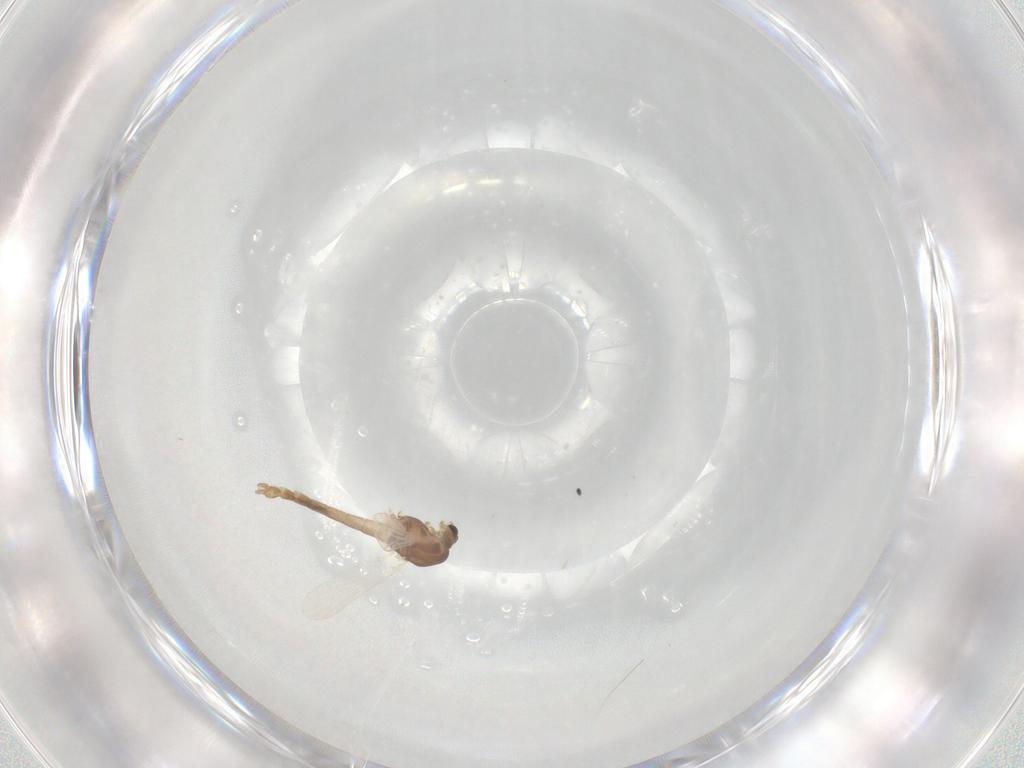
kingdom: Animalia
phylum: Arthropoda
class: Insecta
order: Diptera
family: Chironomidae
